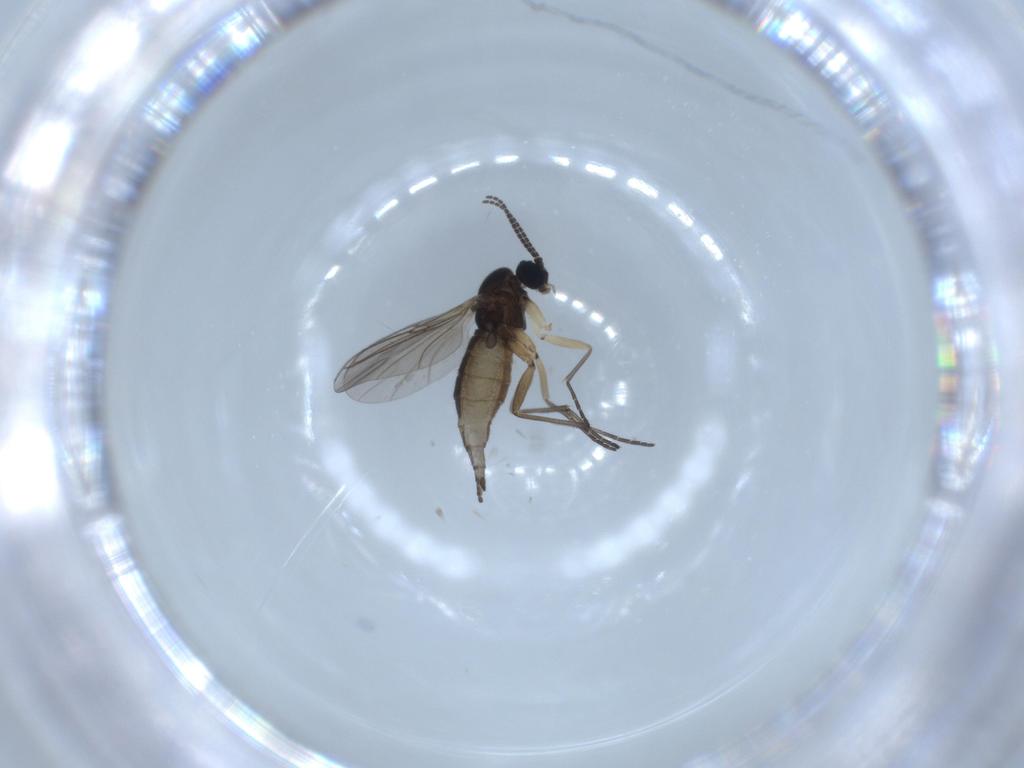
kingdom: Animalia
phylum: Arthropoda
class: Insecta
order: Diptera
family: Sciaridae
